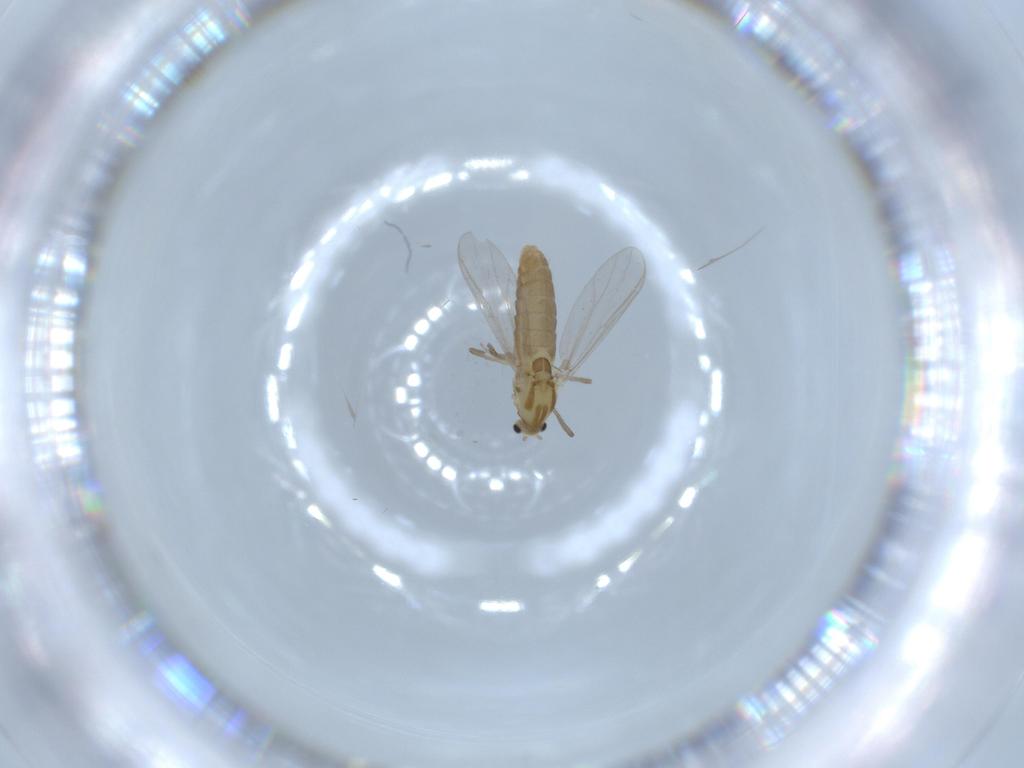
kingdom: Animalia
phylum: Arthropoda
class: Insecta
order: Diptera
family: Chironomidae
